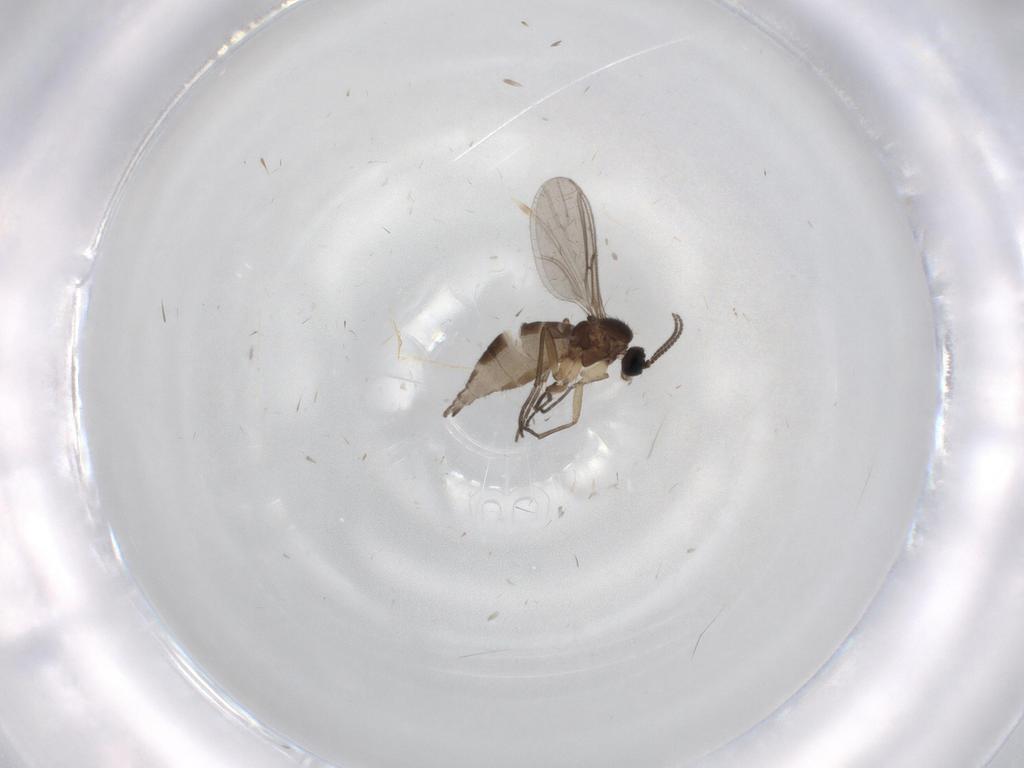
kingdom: Animalia
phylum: Arthropoda
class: Insecta
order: Diptera
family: Sciaridae
